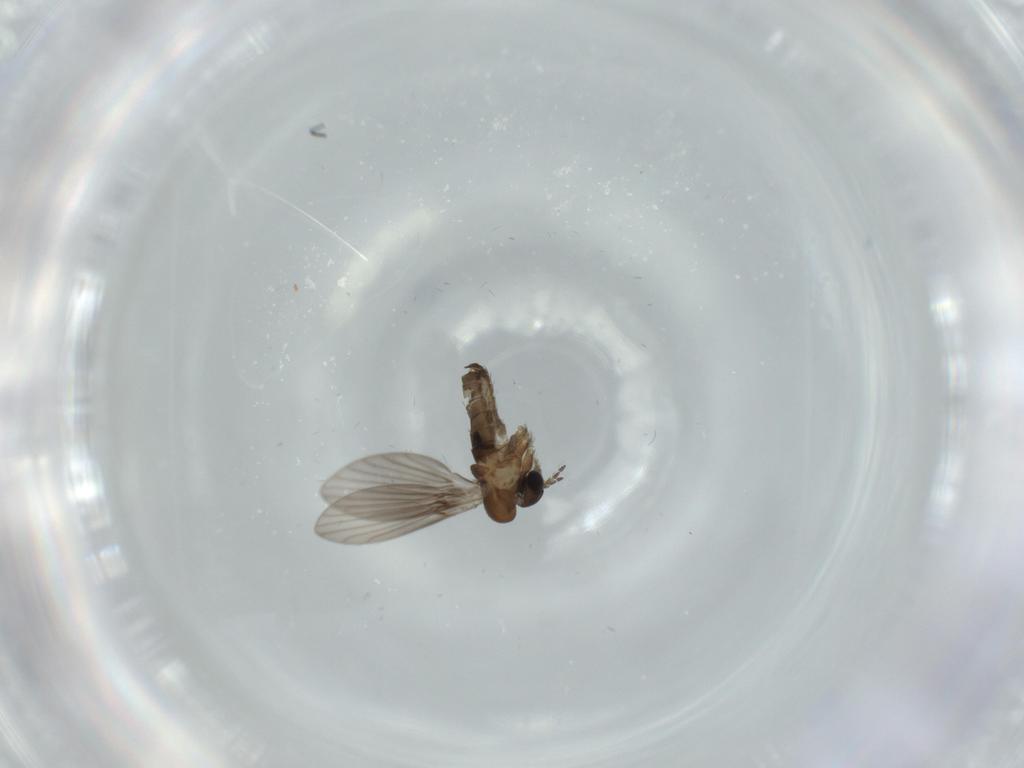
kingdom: Animalia
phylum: Arthropoda
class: Insecta
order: Diptera
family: Psychodidae
